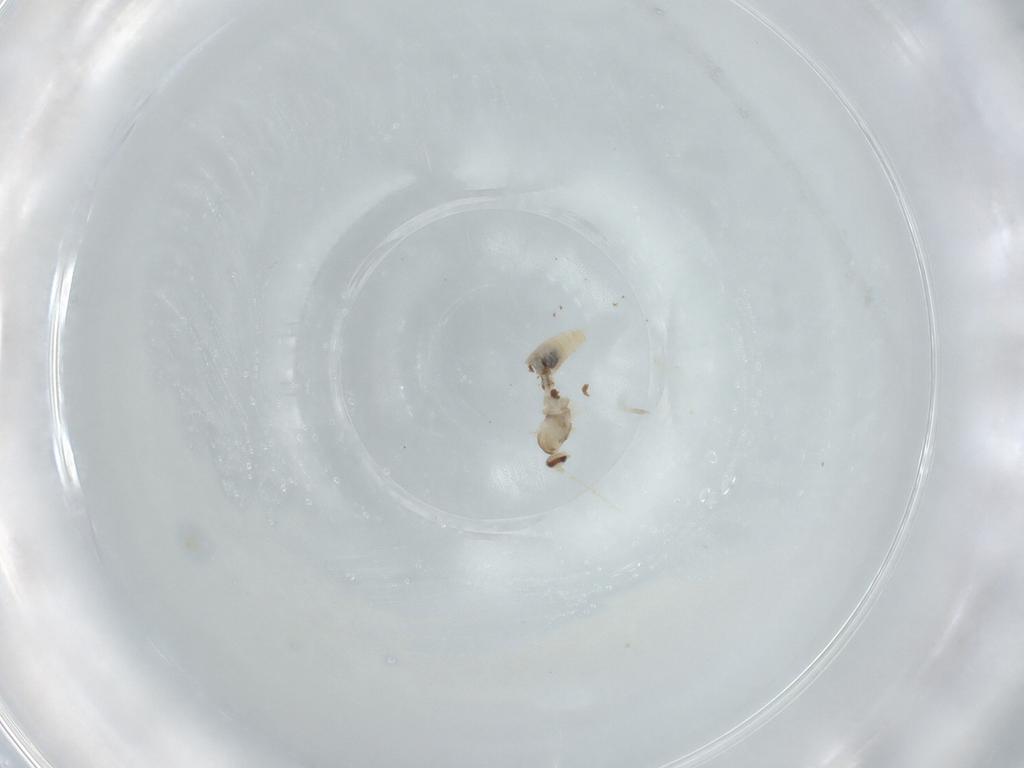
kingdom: Animalia
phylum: Arthropoda
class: Insecta
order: Diptera
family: Cecidomyiidae
